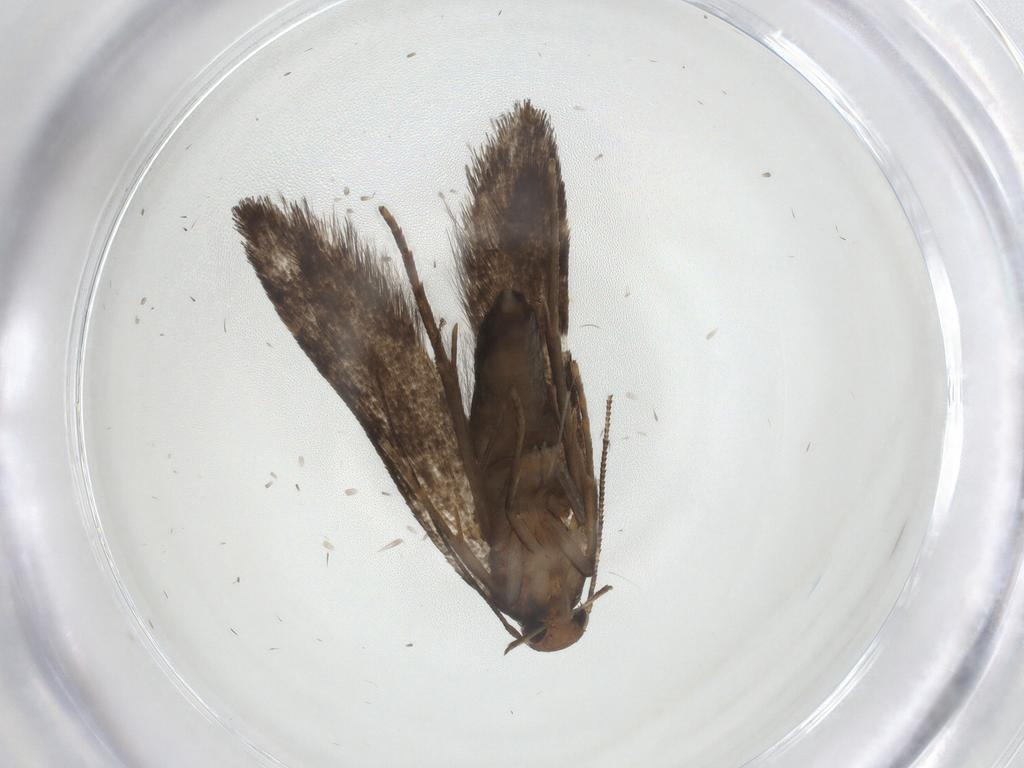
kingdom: Animalia
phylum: Arthropoda
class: Insecta
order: Lepidoptera
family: Noctuidae
